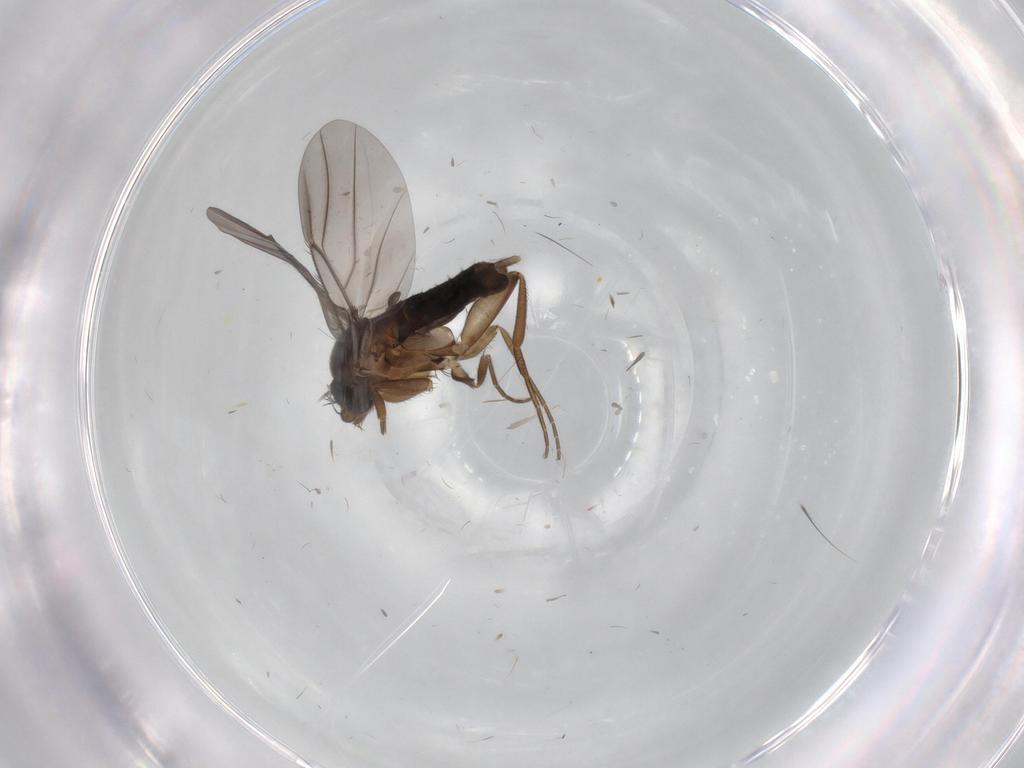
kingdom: Animalia
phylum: Arthropoda
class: Insecta
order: Diptera
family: Phoridae
